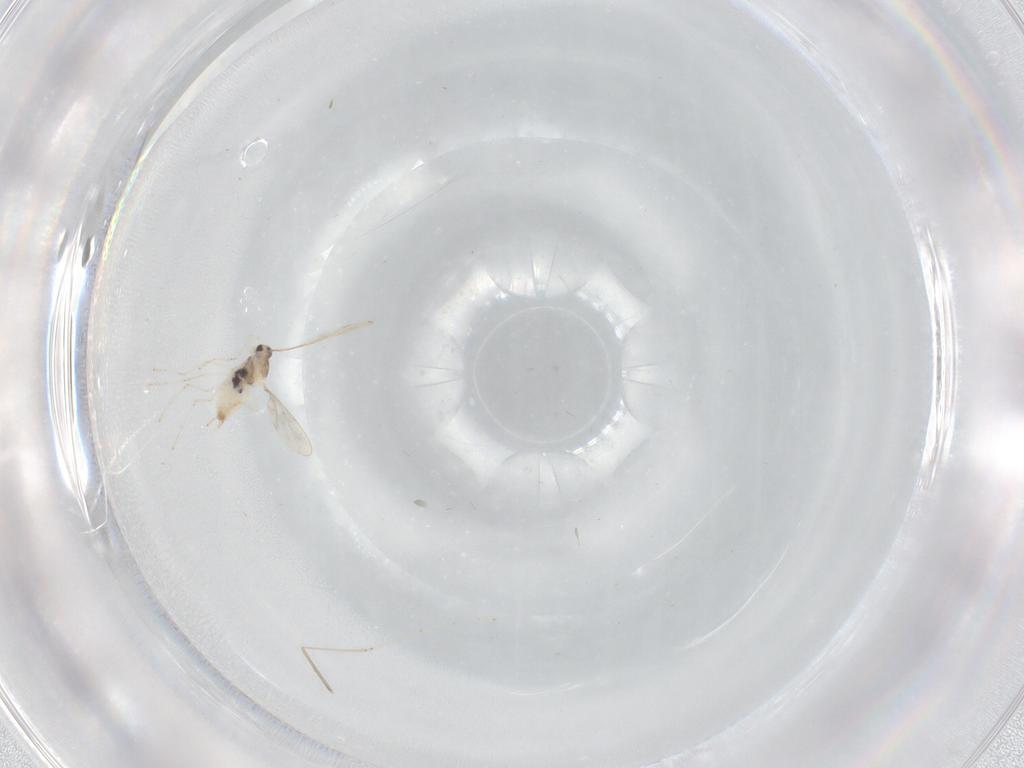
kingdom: Animalia
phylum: Arthropoda
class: Insecta
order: Diptera
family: Cecidomyiidae
